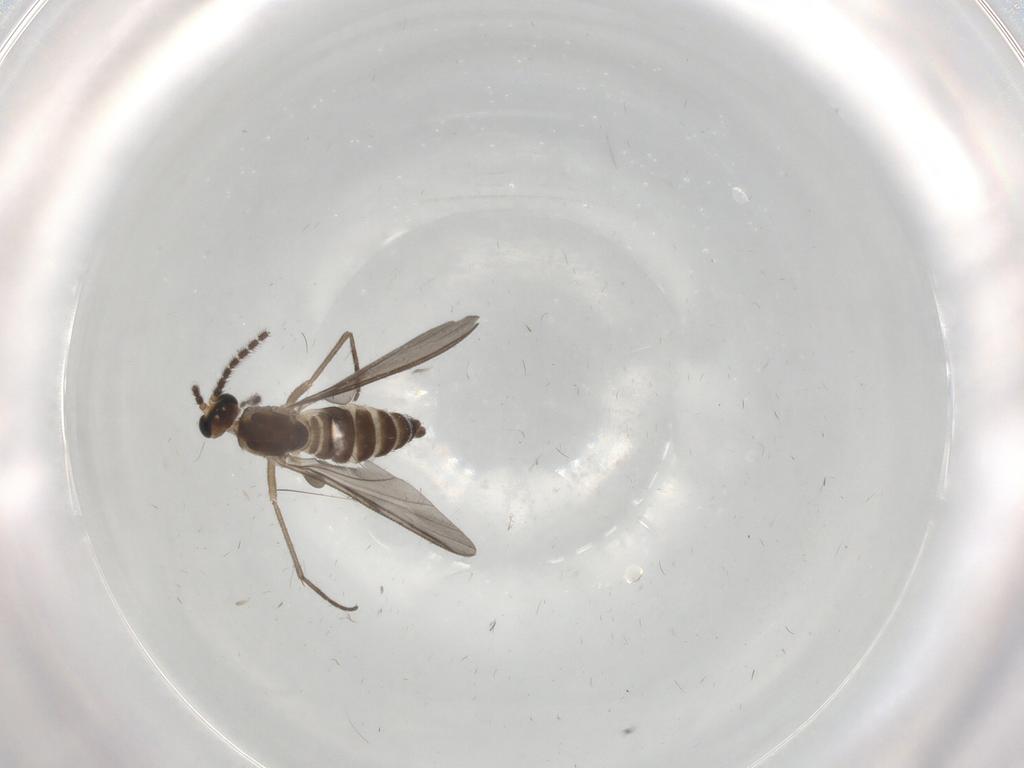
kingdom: Animalia
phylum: Arthropoda
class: Insecta
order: Diptera
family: Sciaridae
